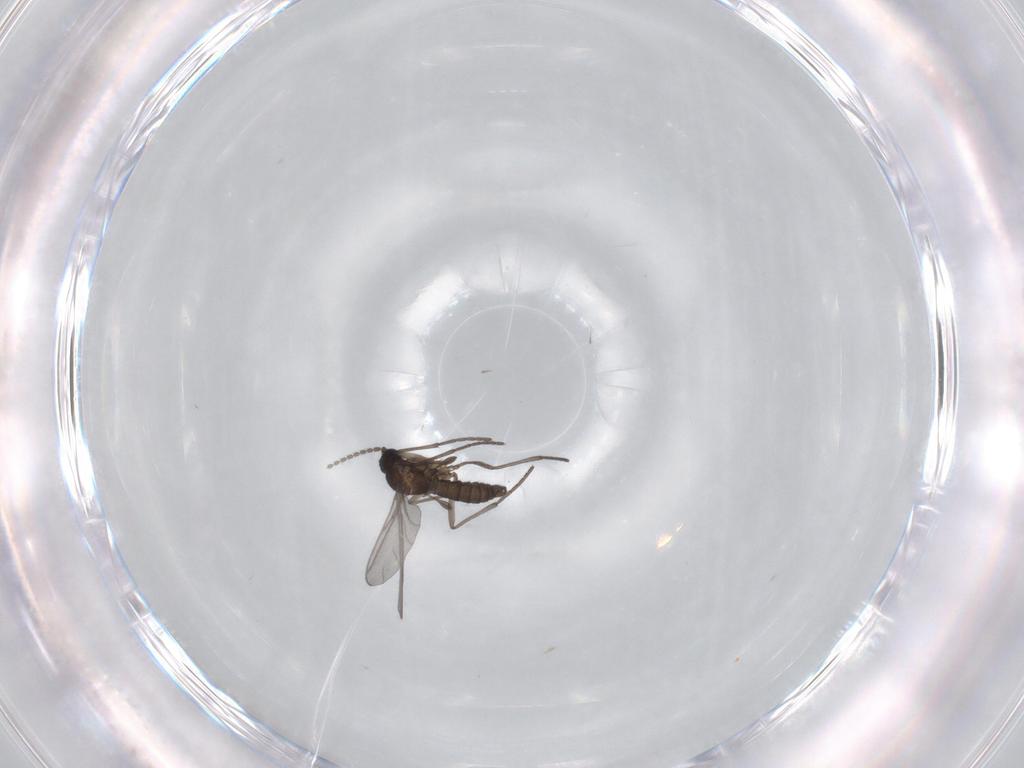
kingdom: Animalia
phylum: Arthropoda
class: Insecta
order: Diptera
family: Sciaridae
